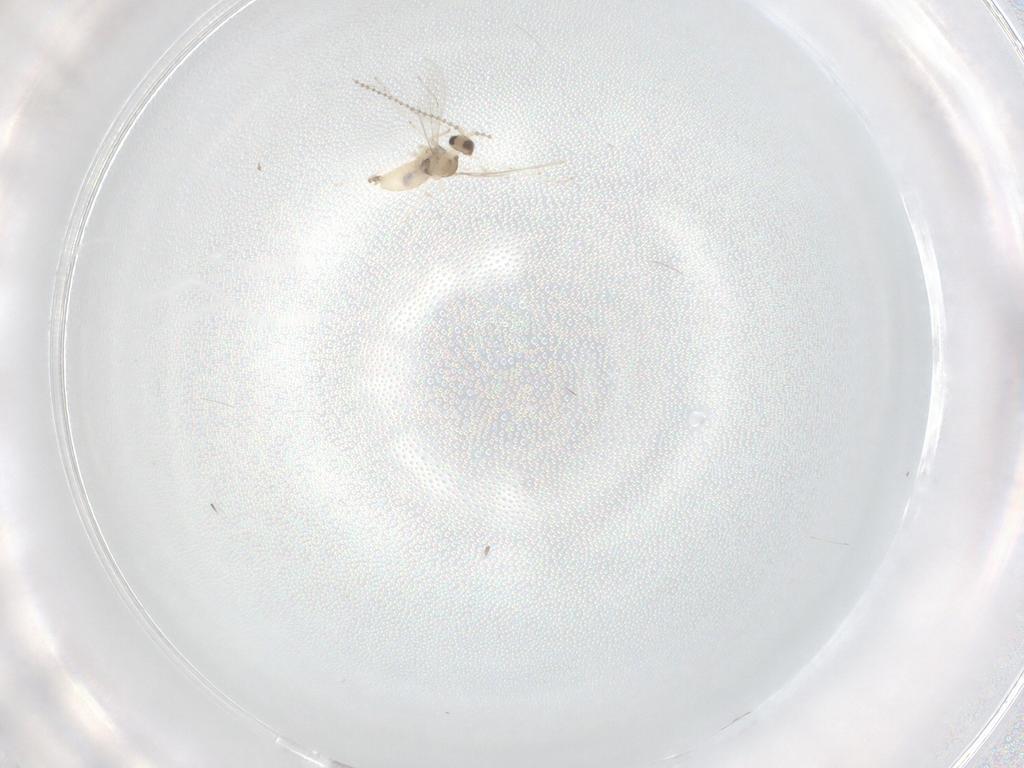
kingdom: Animalia
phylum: Arthropoda
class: Insecta
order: Diptera
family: Cecidomyiidae
